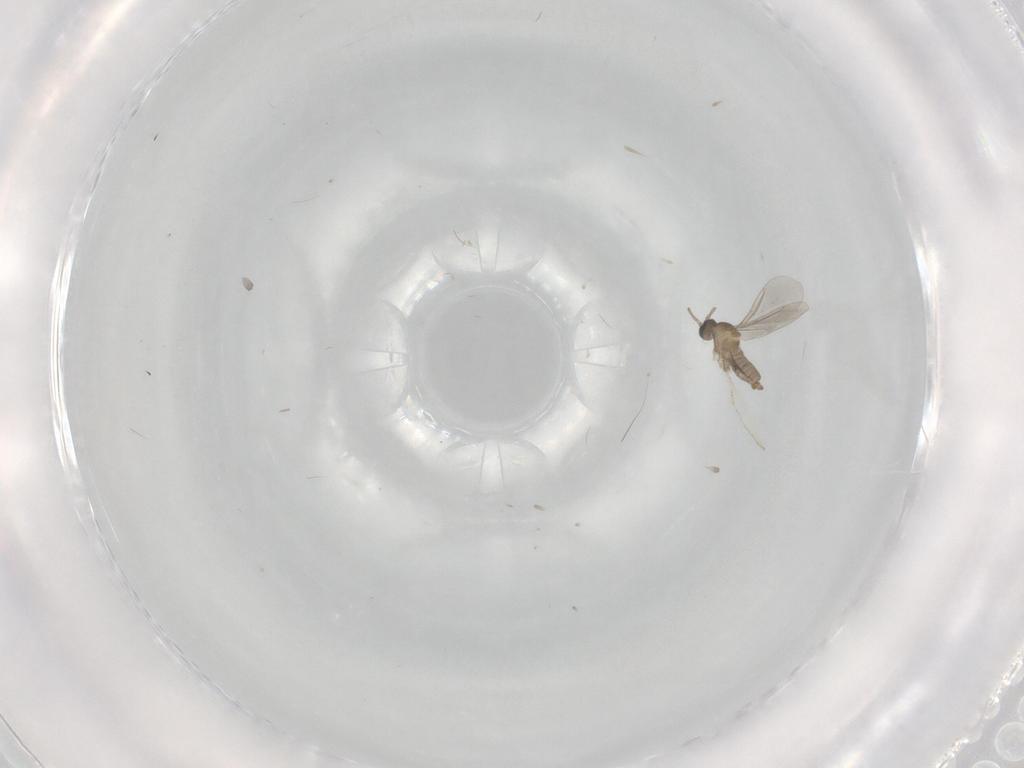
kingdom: Animalia
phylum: Arthropoda
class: Insecta
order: Diptera
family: Cecidomyiidae
